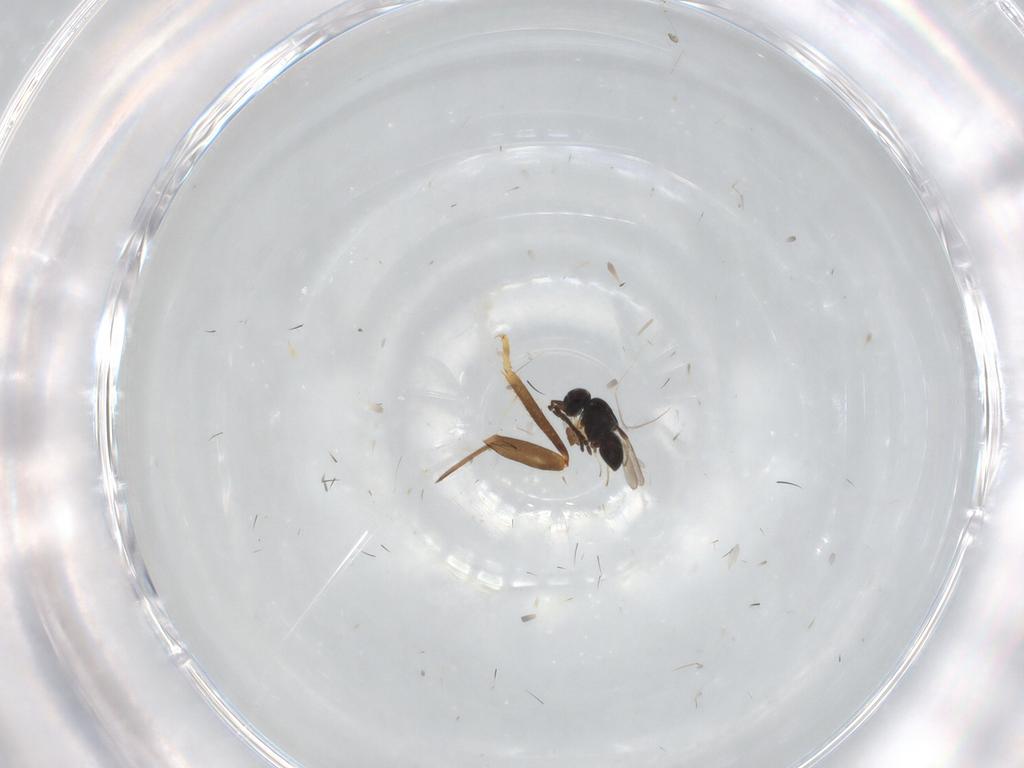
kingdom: Animalia
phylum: Arthropoda
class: Insecta
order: Hymenoptera
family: Ichneumonidae
